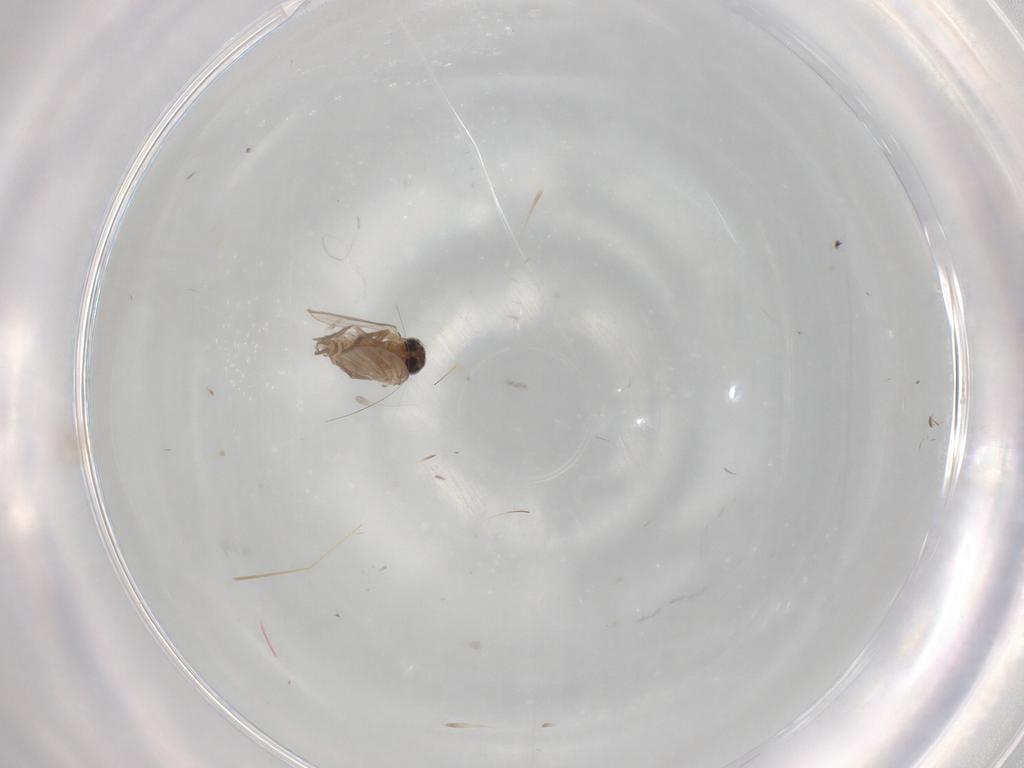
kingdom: Animalia
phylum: Arthropoda
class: Insecta
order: Diptera
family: Psychodidae
